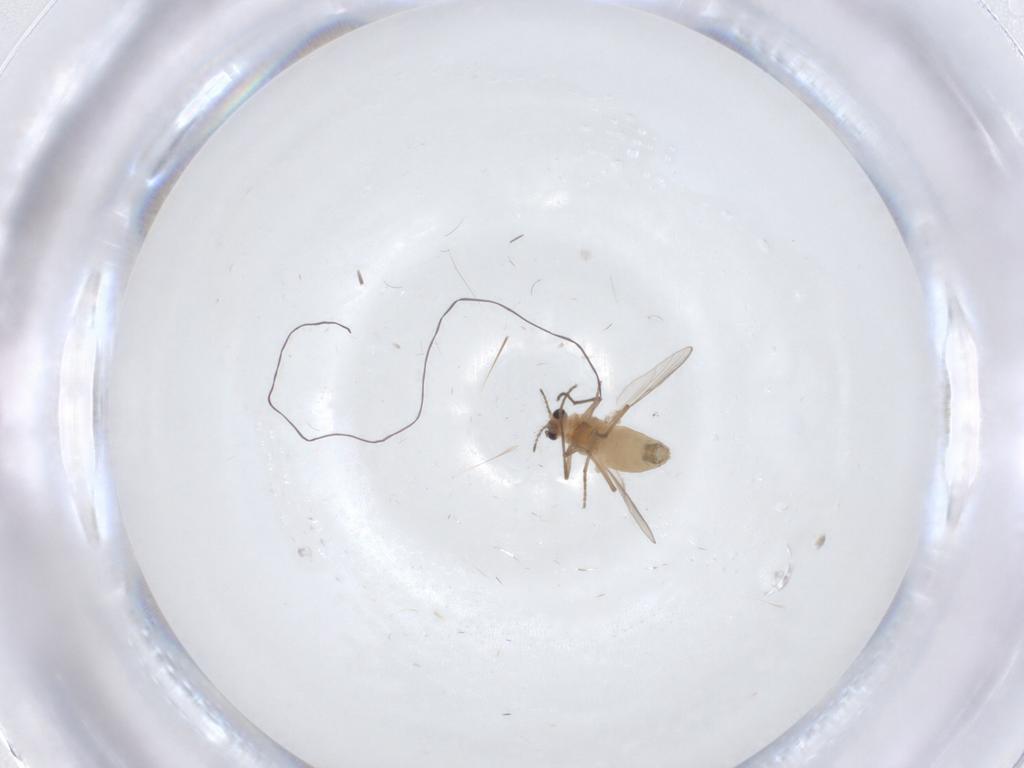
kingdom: Animalia
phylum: Arthropoda
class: Insecta
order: Diptera
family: Chironomidae
